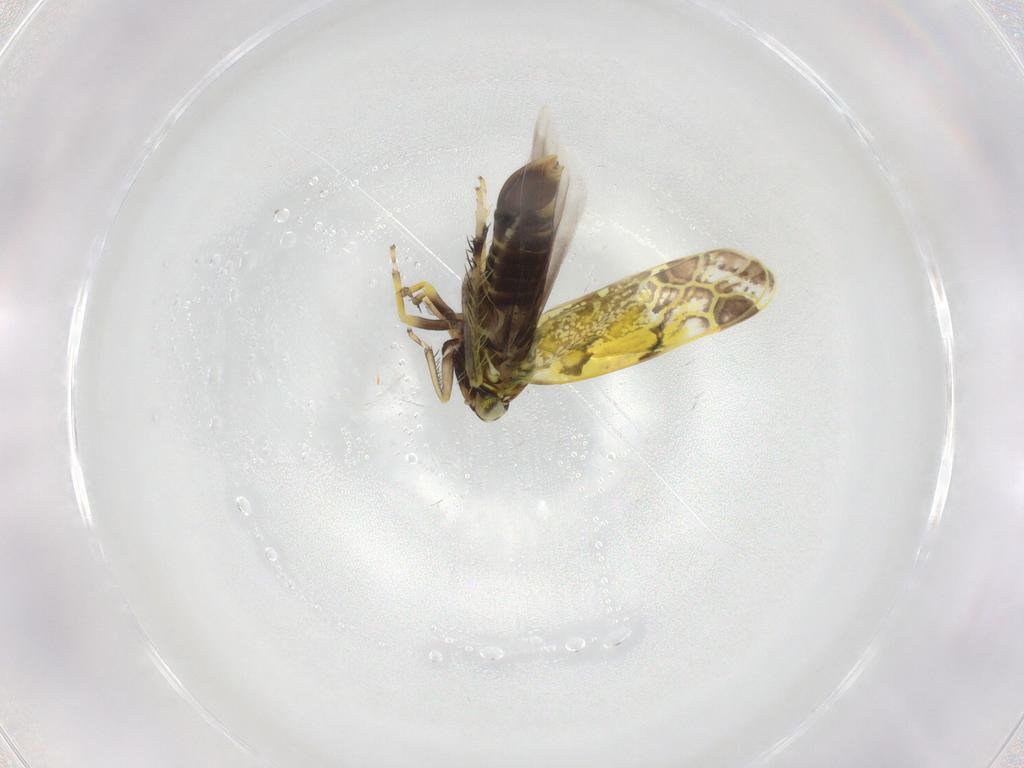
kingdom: Animalia
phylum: Arthropoda
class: Insecta
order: Hemiptera
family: Cicadellidae
